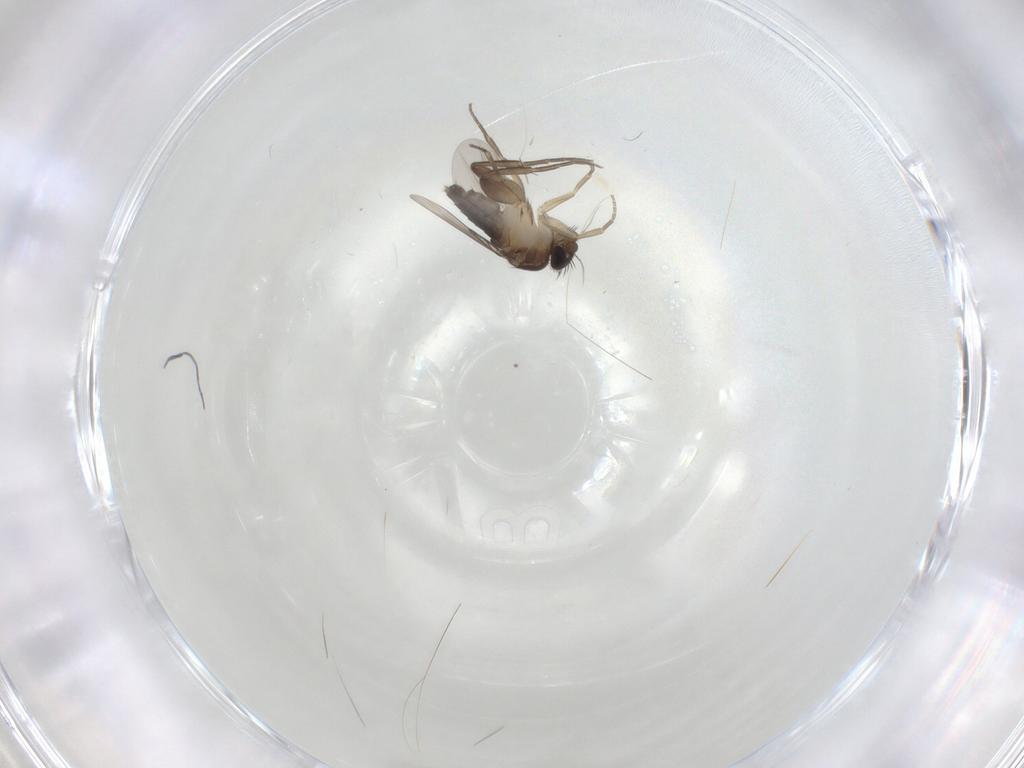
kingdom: Animalia
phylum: Arthropoda
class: Insecta
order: Diptera
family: Phoridae
